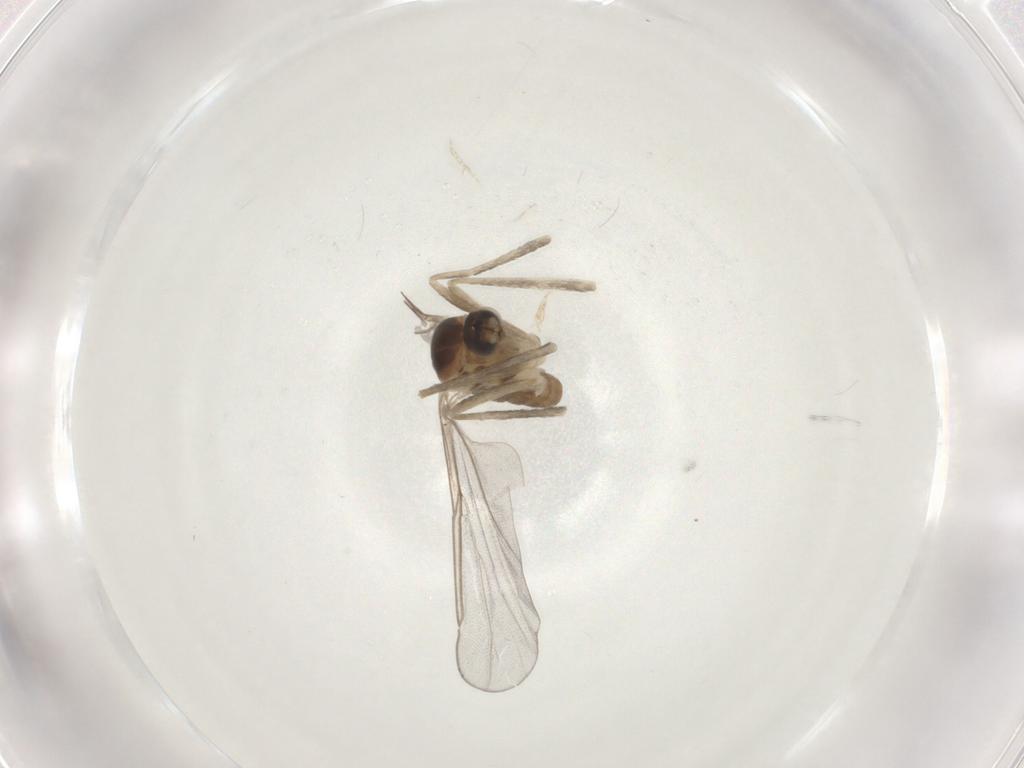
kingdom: Animalia
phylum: Arthropoda
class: Insecta
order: Diptera
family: Cecidomyiidae
